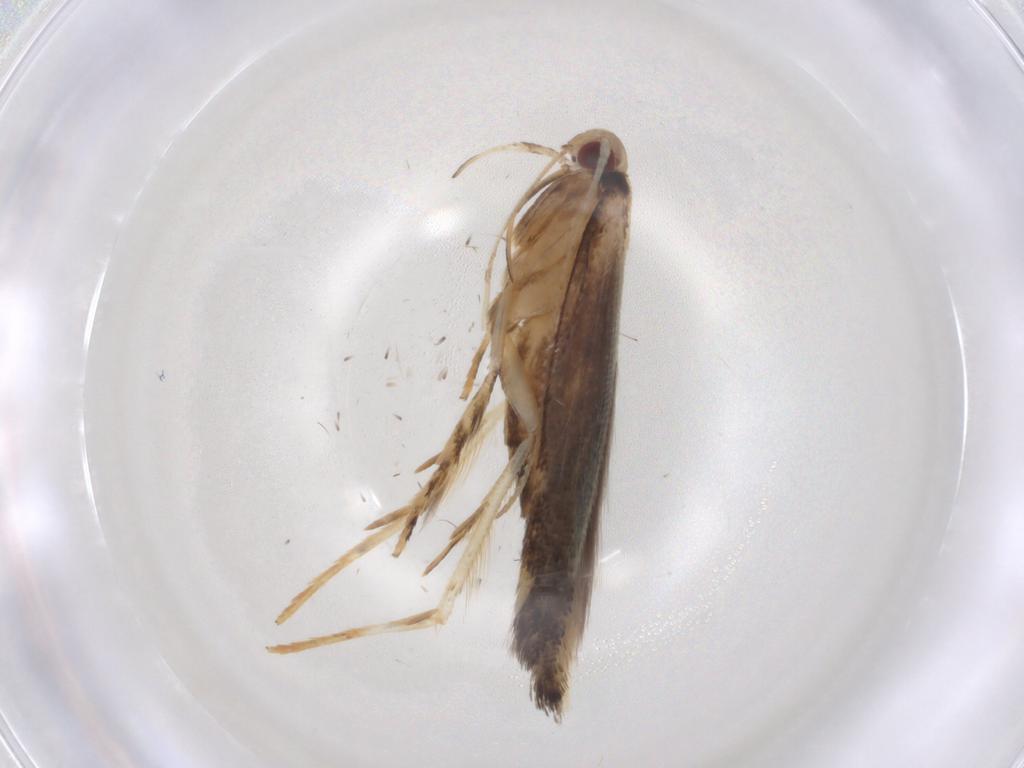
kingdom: Animalia
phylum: Arthropoda
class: Insecta
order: Lepidoptera
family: Cosmopterigidae
